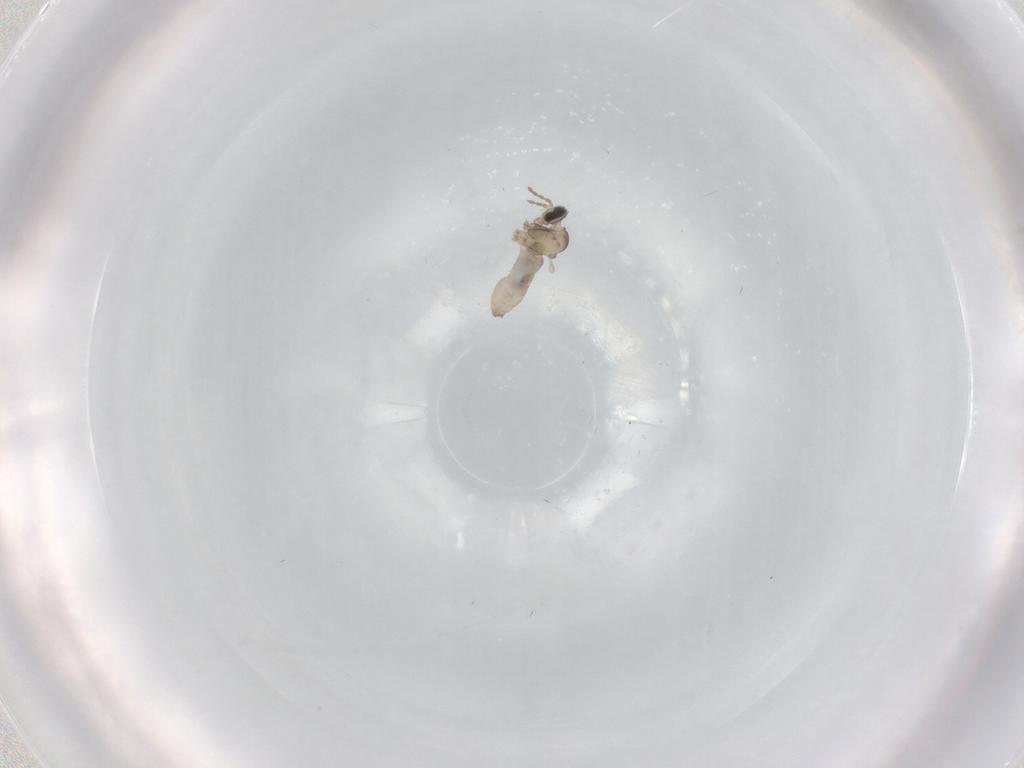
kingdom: Animalia
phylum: Arthropoda
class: Insecta
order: Diptera
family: Cecidomyiidae
